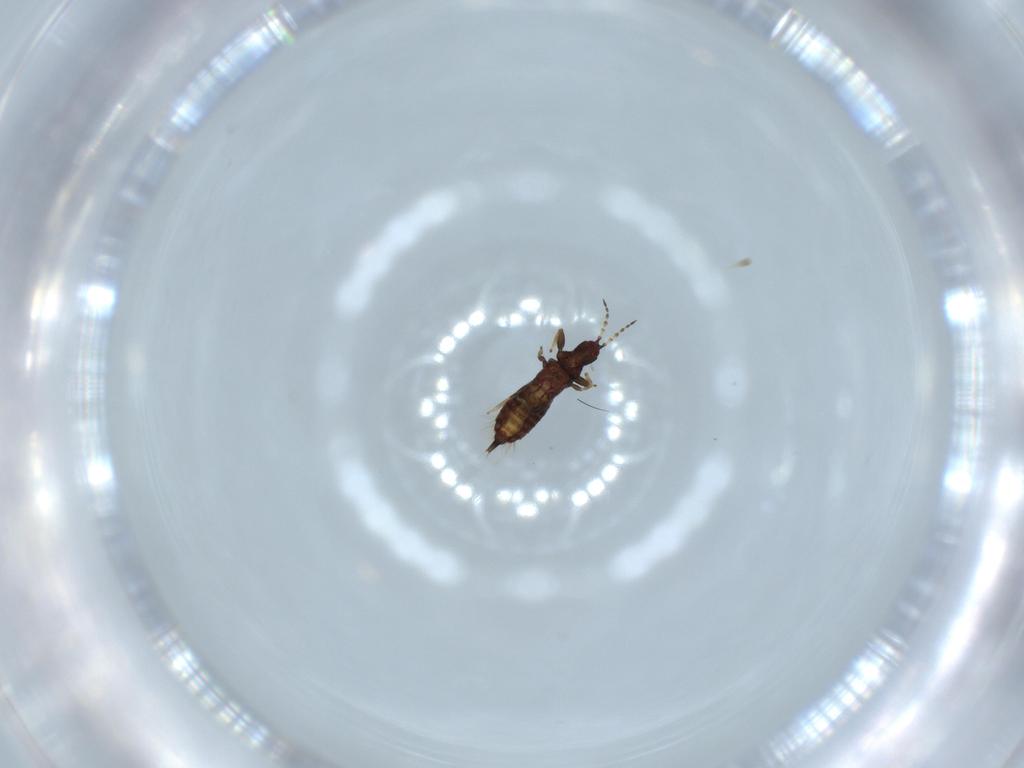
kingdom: Animalia
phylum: Arthropoda
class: Insecta
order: Thysanoptera
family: Phlaeothripidae
